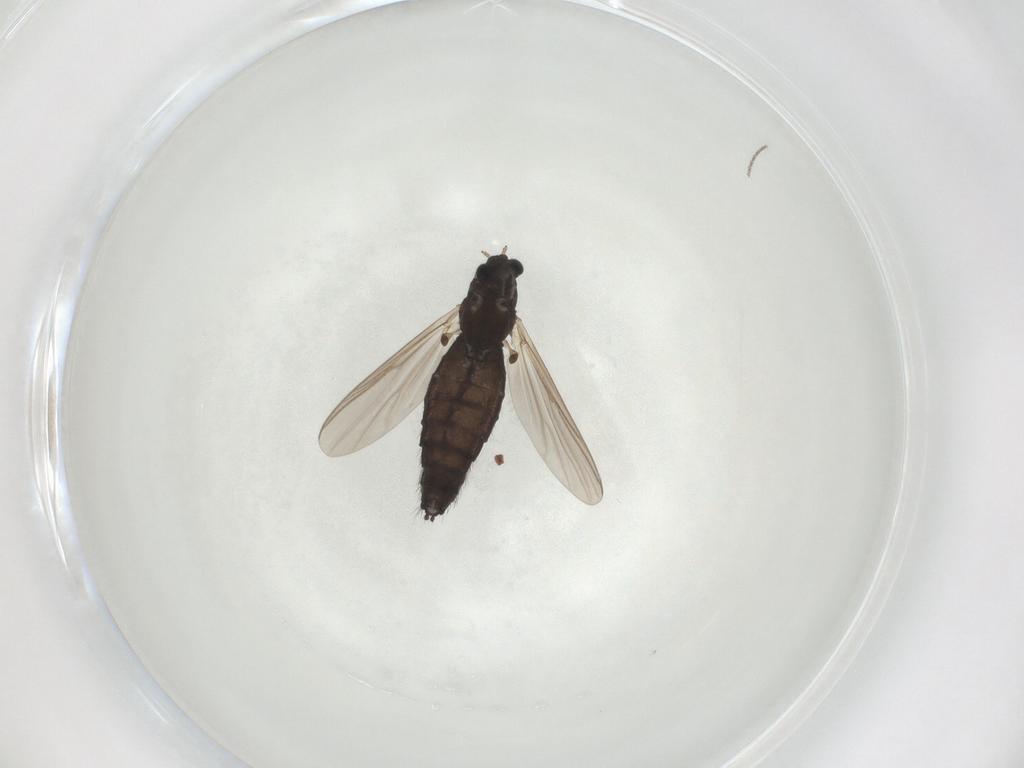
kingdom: Animalia
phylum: Arthropoda
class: Insecta
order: Diptera
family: Chironomidae
